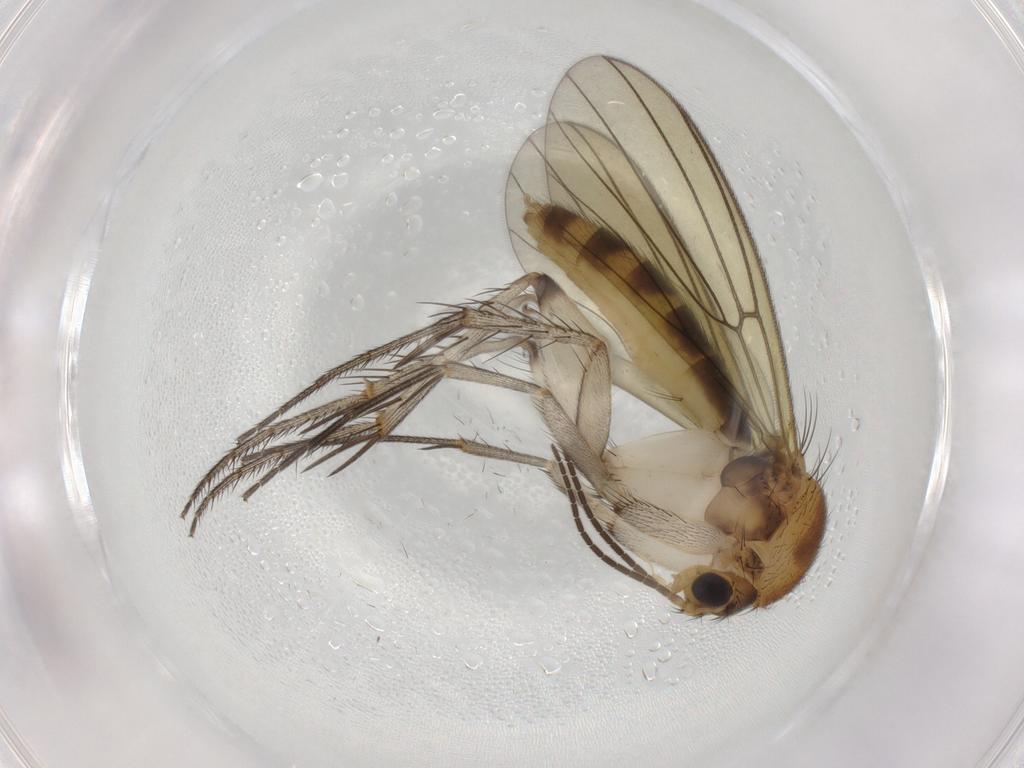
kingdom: Animalia
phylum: Arthropoda
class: Insecta
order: Diptera
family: Mycetophilidae
